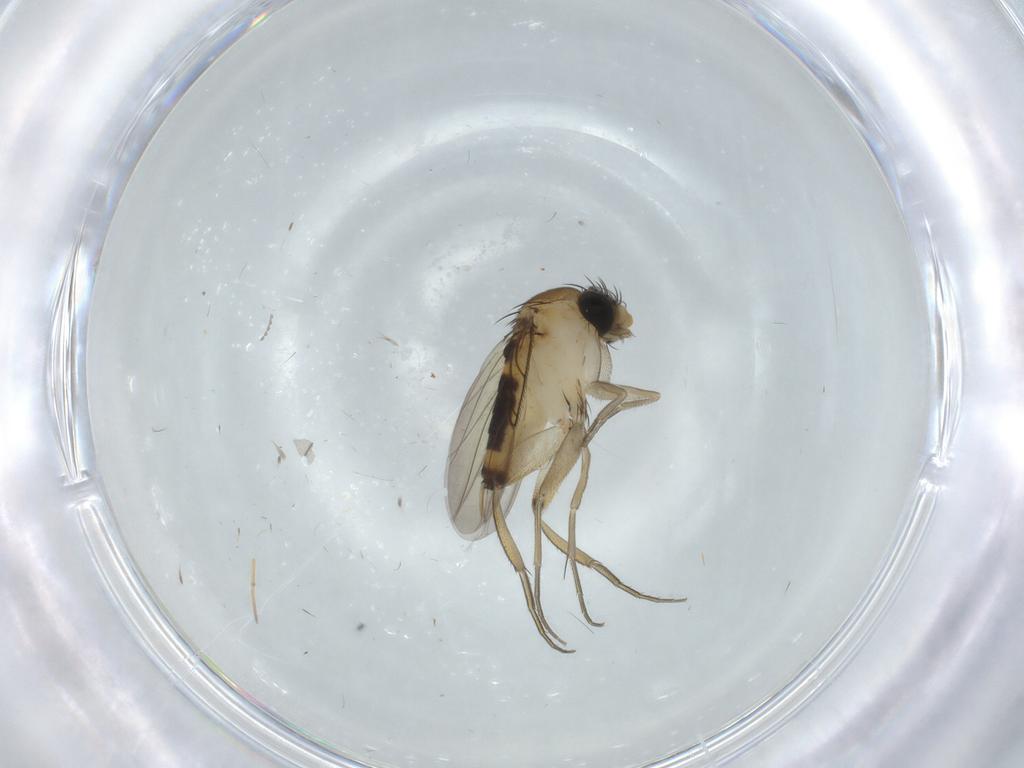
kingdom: Animalia
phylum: Arthropoda
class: Insecta
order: Diptera
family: Phoridae
